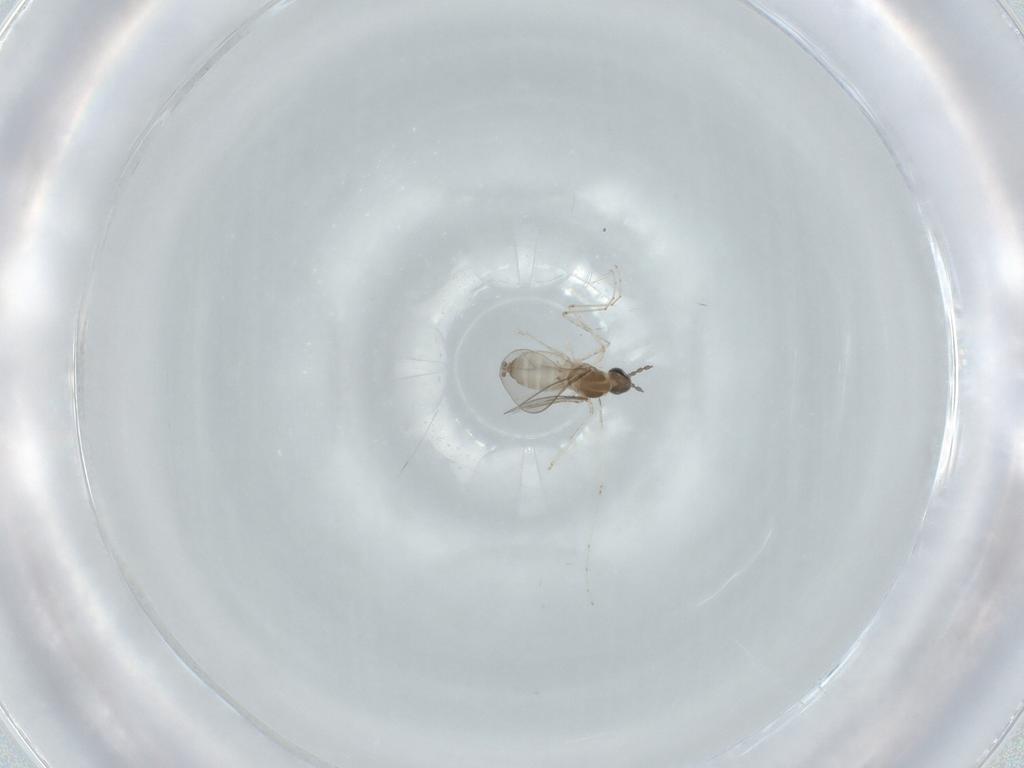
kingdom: Animalia
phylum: Arthropoda
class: Insecta
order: Diptera
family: Cecidomyiidae
